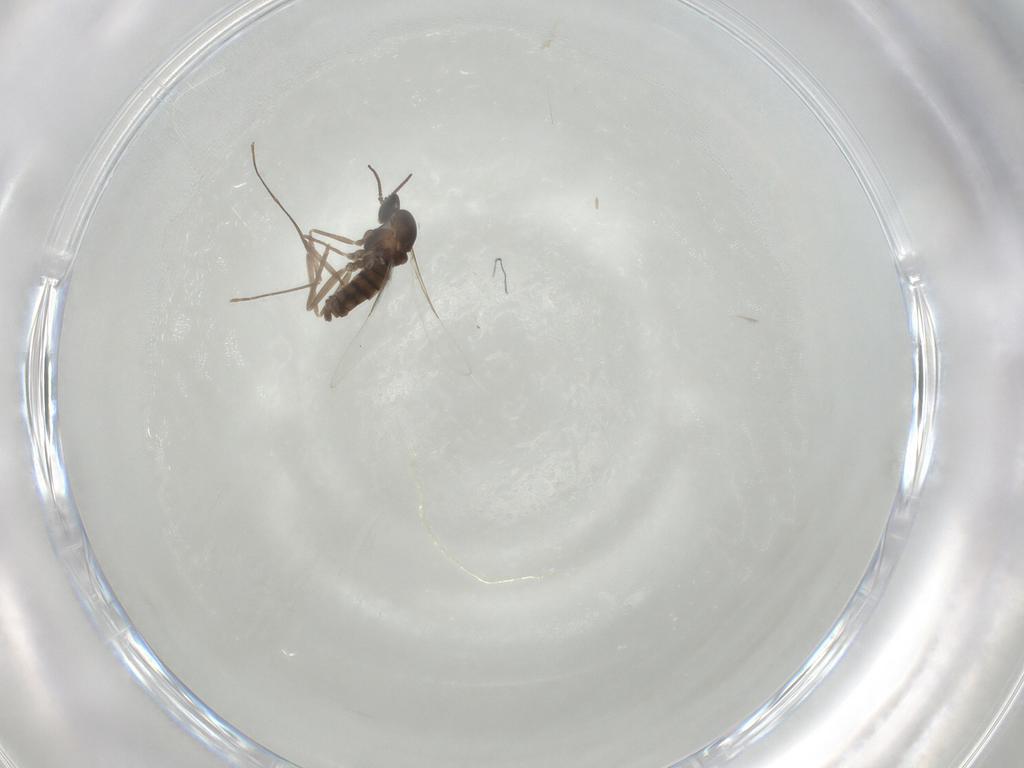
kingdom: Animalia
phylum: Arthropoda
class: Insecta
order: Diptera
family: Cecidomyiidae
